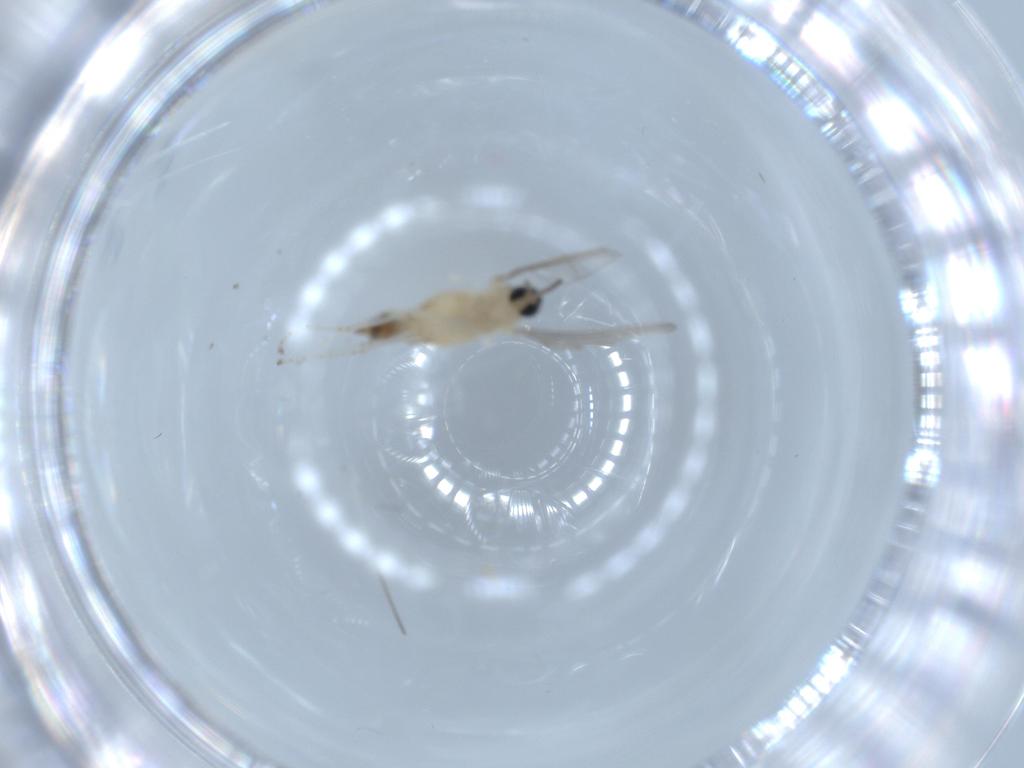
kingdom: Animalia
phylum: Arthropoda
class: Insecta
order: Diptera
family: Cecidomyiidae
